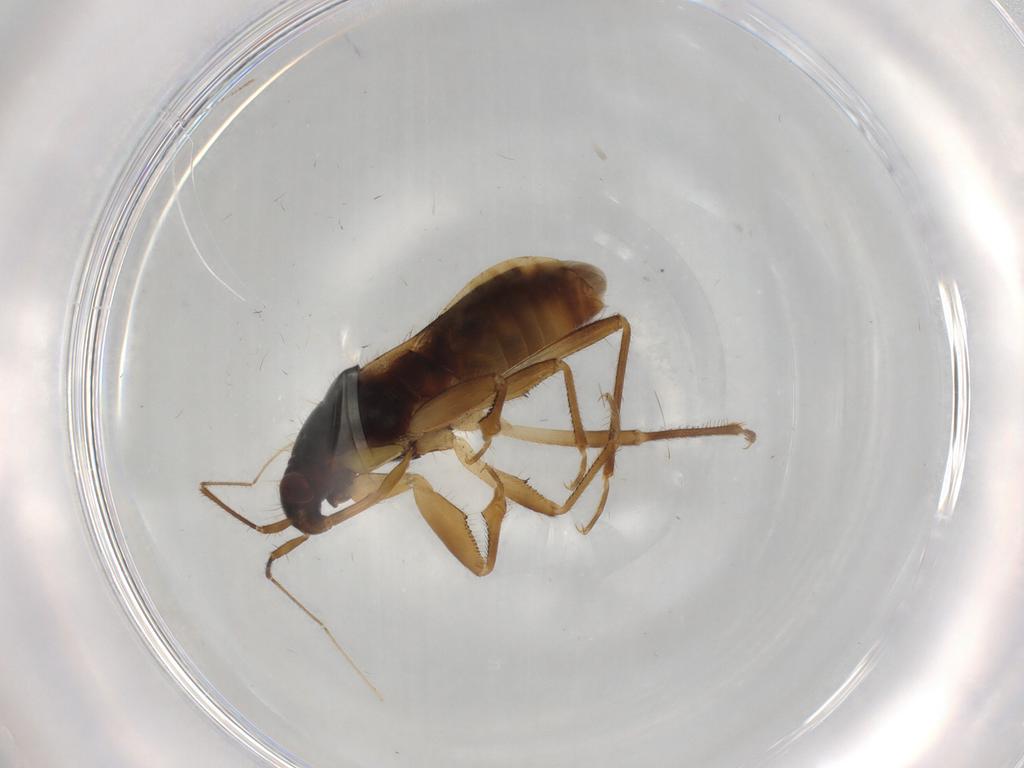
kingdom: Animalia
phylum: Arthropoda
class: Insecta
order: Hemiptera
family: Nabidae
